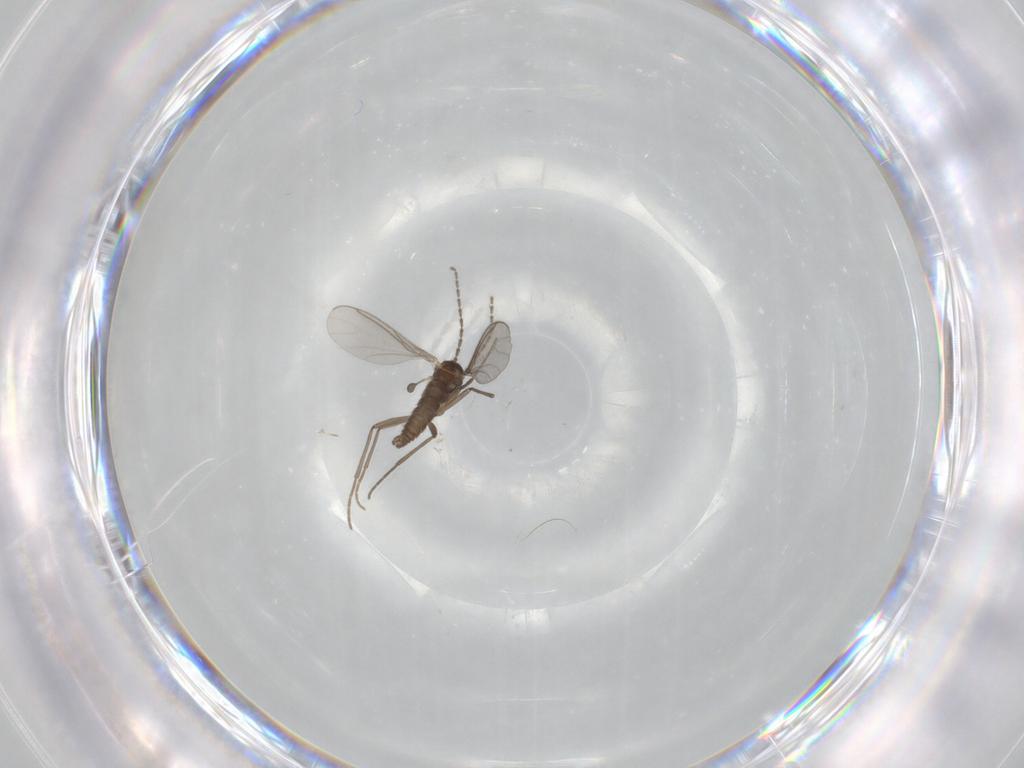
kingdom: Animalia
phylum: Arthropoda
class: Insecta
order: Diptera
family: Sciaridae
